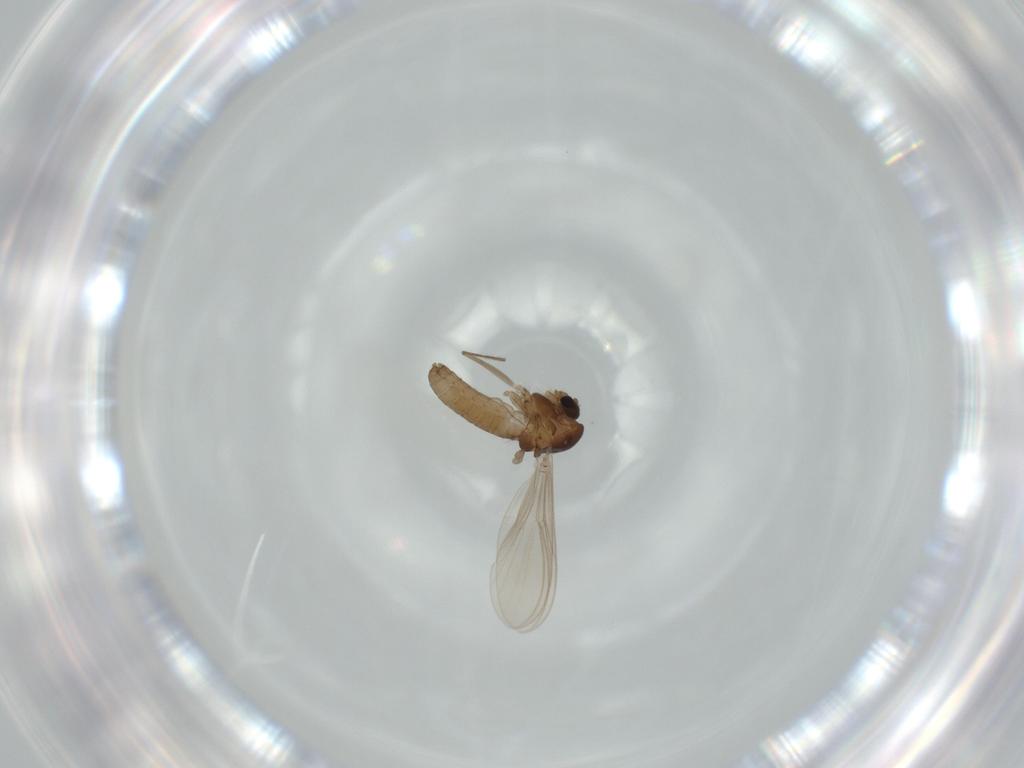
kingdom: Animalia
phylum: Arthropoda
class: Insecta
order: Diptera
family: Chironomidae
